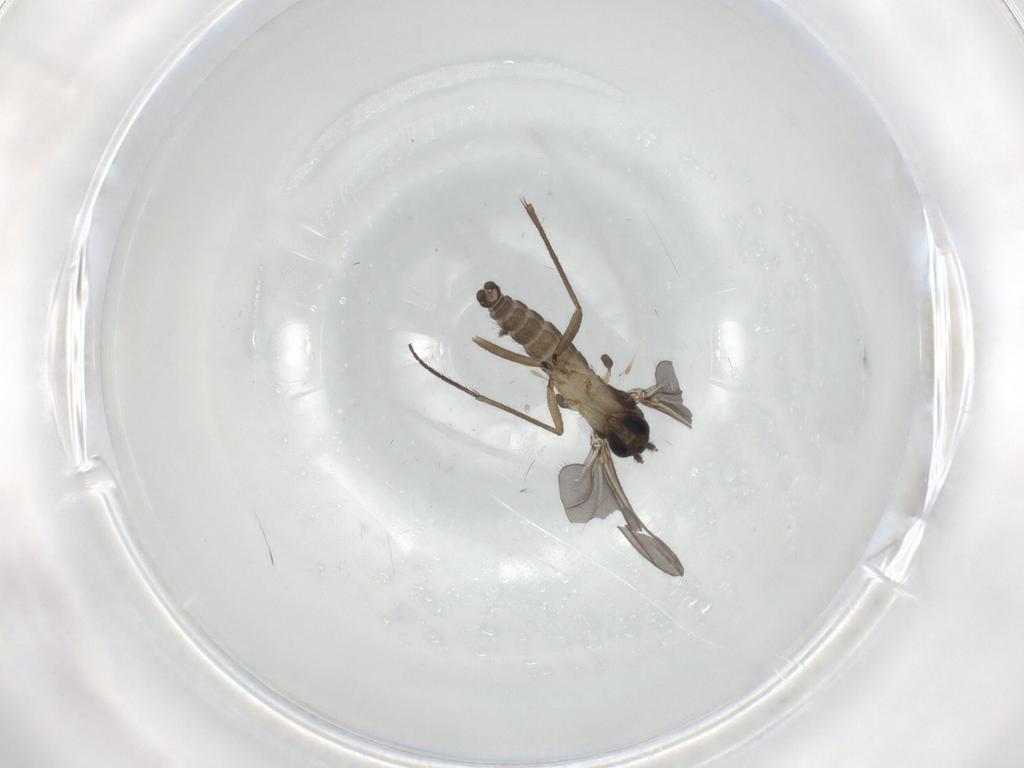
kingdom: Animalia
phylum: Arthropoda
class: Insecta
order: Diptera
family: Sciaridae
